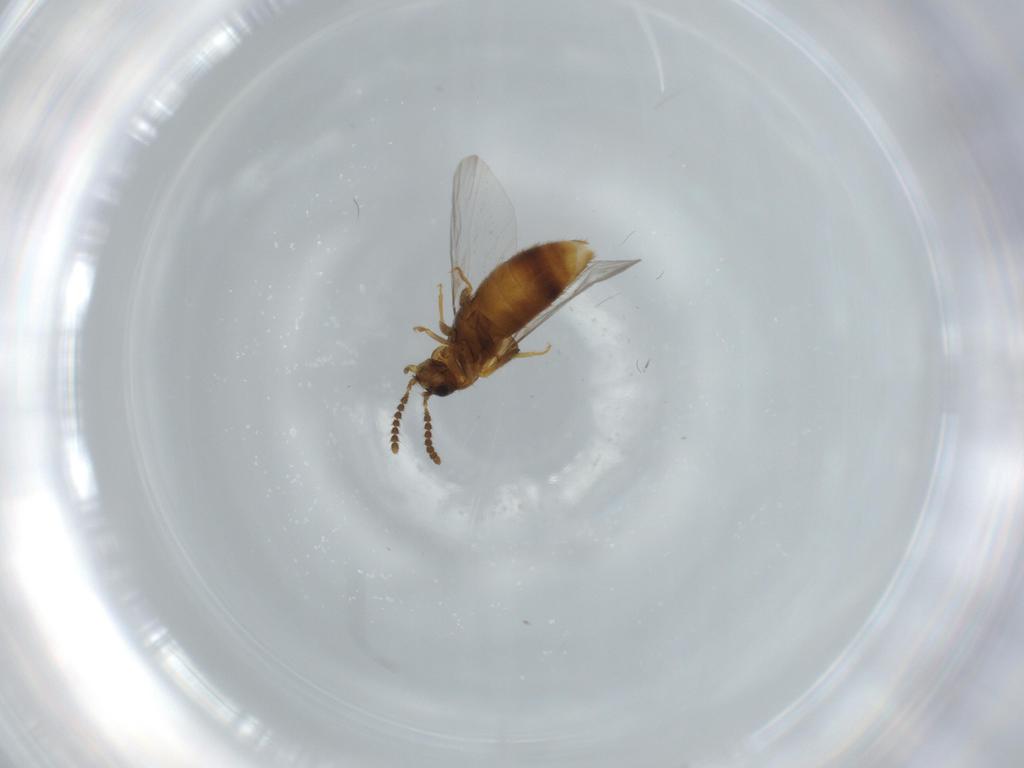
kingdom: Animalia
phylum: Arthropoda
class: Insecta
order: Coleoptera
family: Staphylinidae
